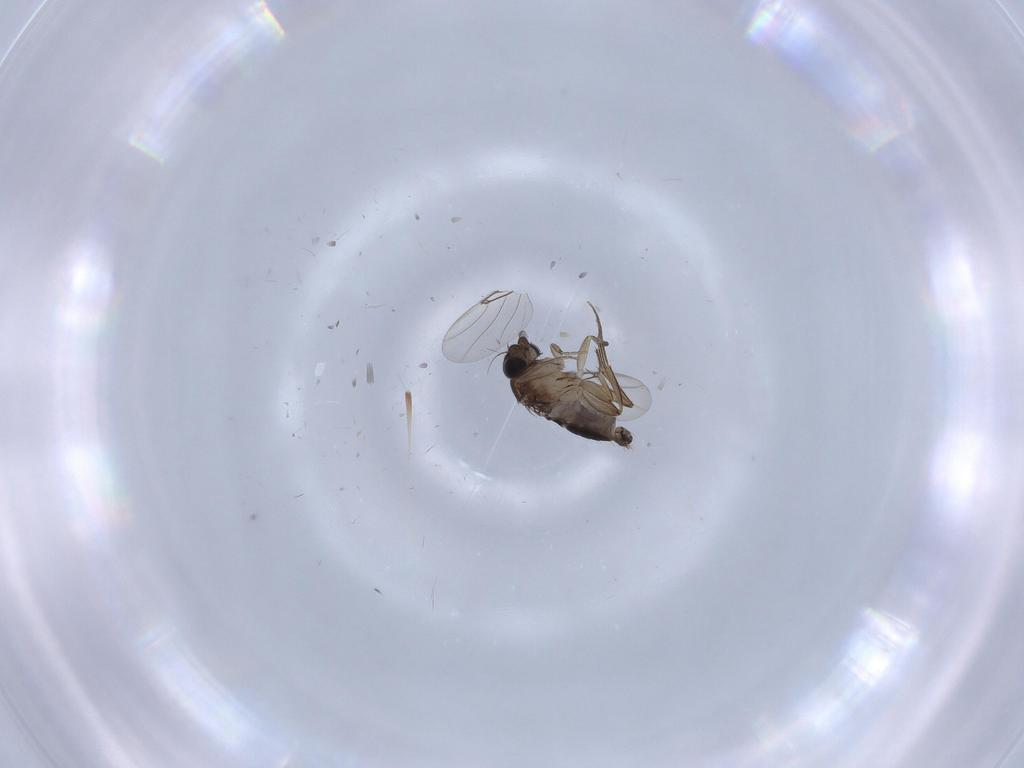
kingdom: Animalia
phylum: Arthropoda
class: Insecta
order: Diptera
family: Phoridae
